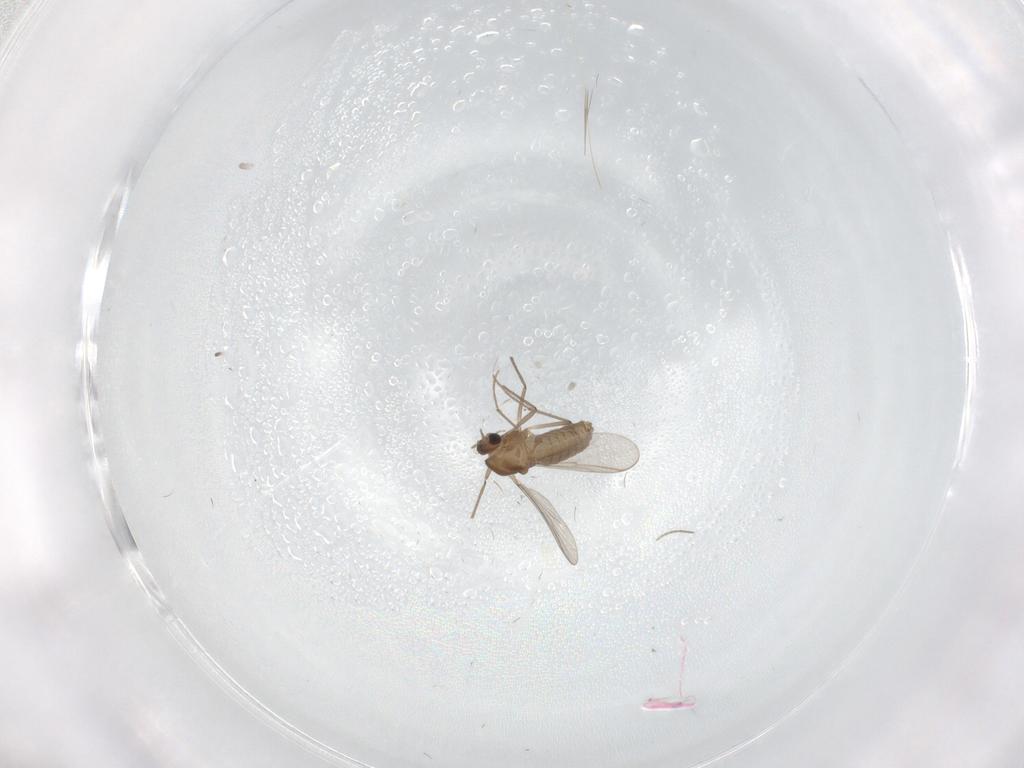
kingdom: Animalia
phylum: Arthropoda
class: Insecta
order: Diptera
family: Chironomidae
